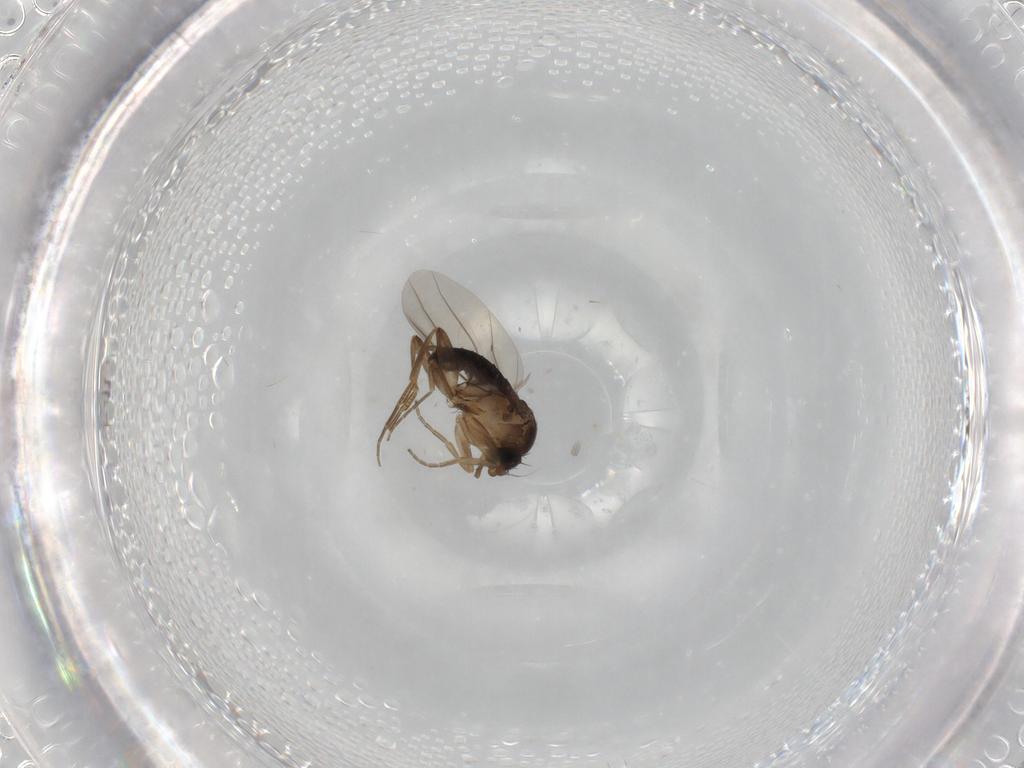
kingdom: Animalia
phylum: Arthropoda
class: Insecta
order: Diptera
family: Phoridae
